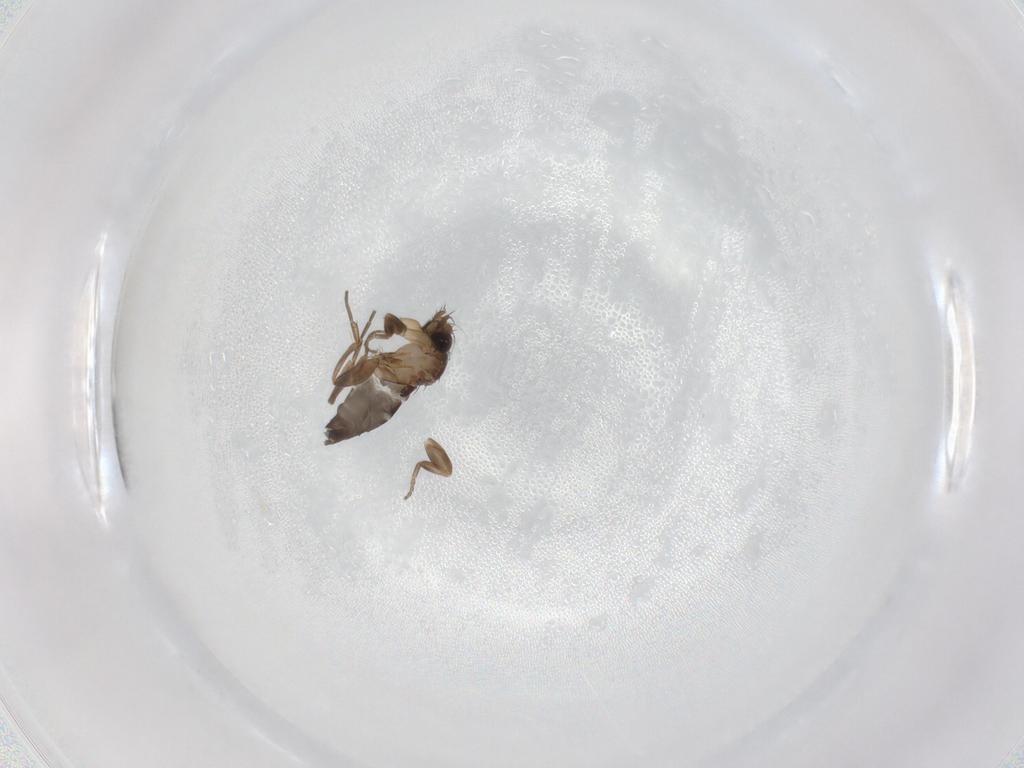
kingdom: Animalia
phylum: Arthropoda
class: Insecta
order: Diptera
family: Phoridae
